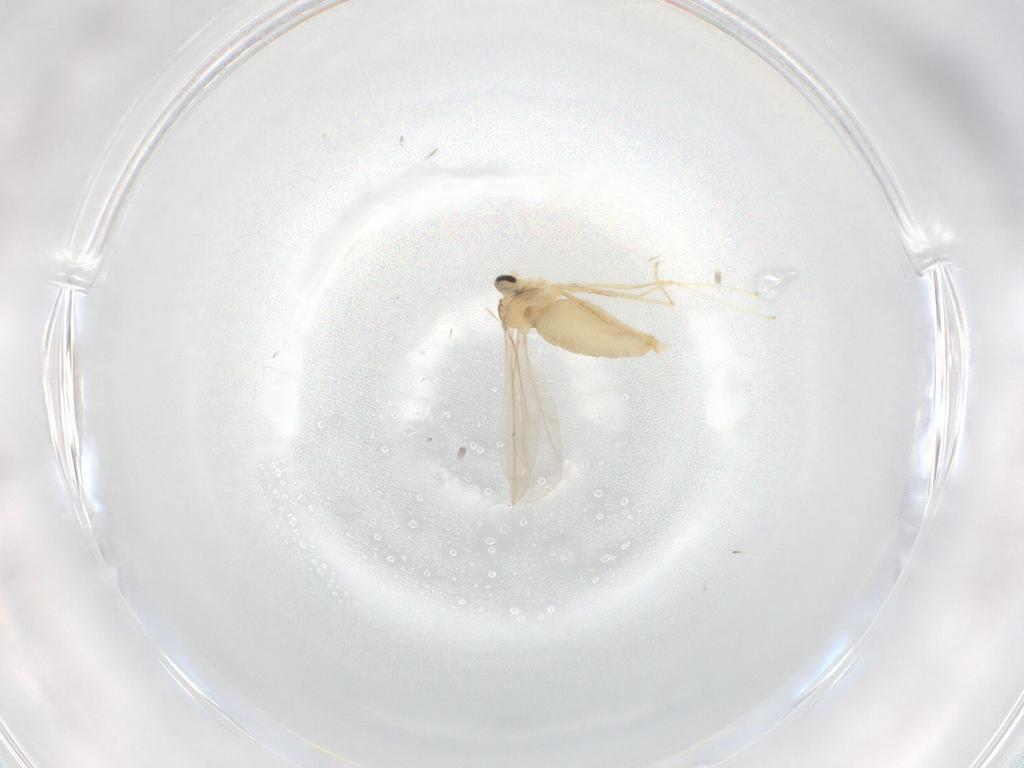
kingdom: Animalia
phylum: Arthropoda
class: Insecta
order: Diptera
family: Cecidomyiidae
